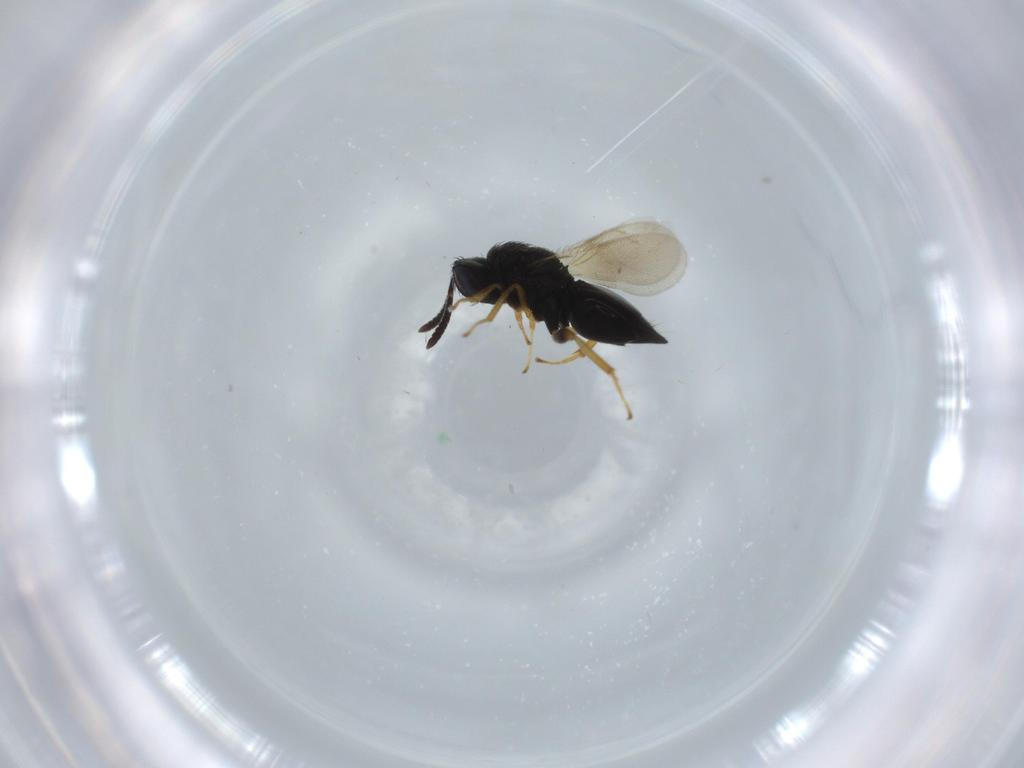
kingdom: Animalia
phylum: Arthropoda
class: Insecta
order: Hymenoptera
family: Pteromalidae
